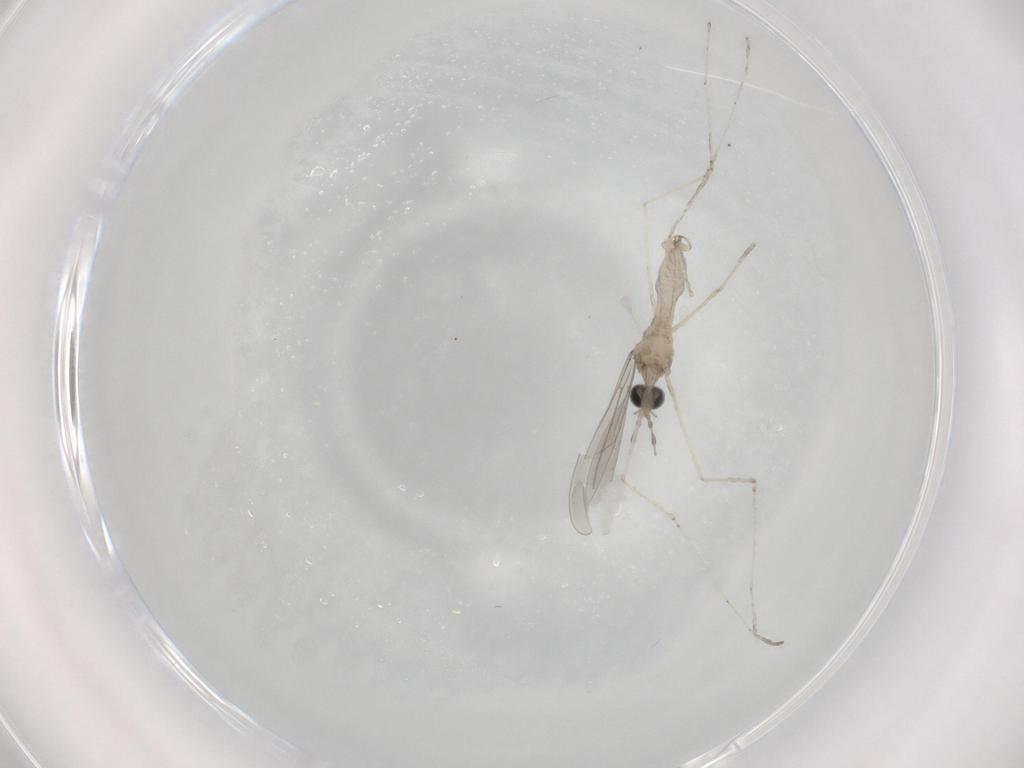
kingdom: Animalia
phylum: Arthropoda
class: Insecta
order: Diptera
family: Cecidomyiidae
